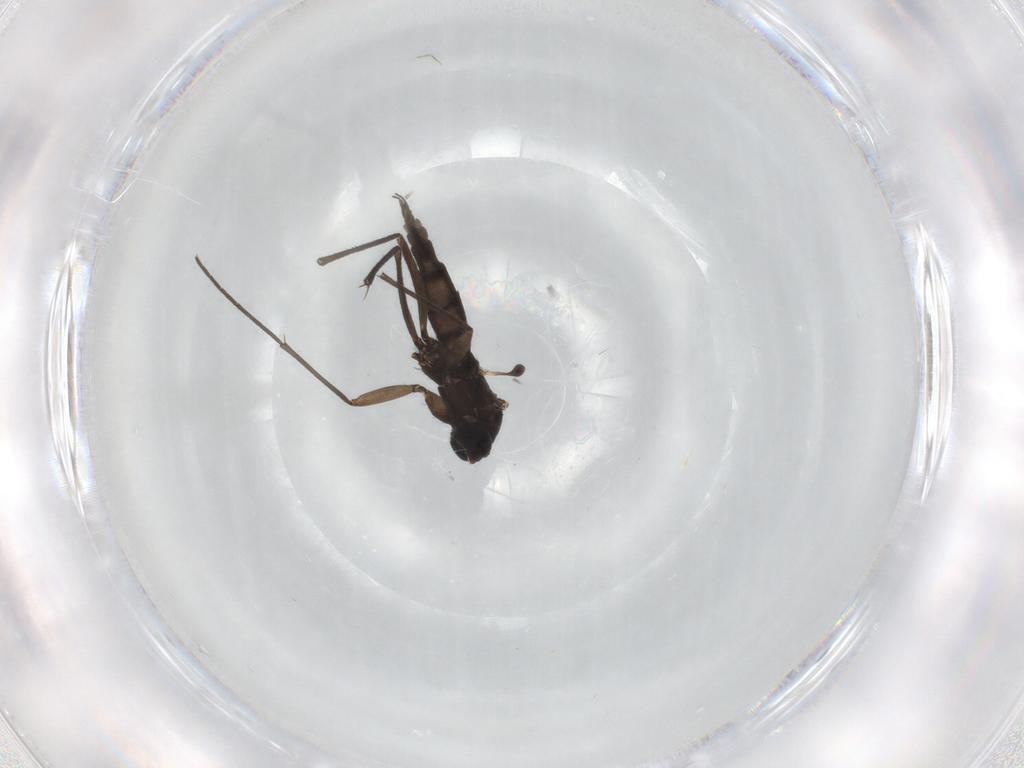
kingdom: Animalia
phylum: Arthropoda
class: Insecta
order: Diptera
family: Sciaridae
